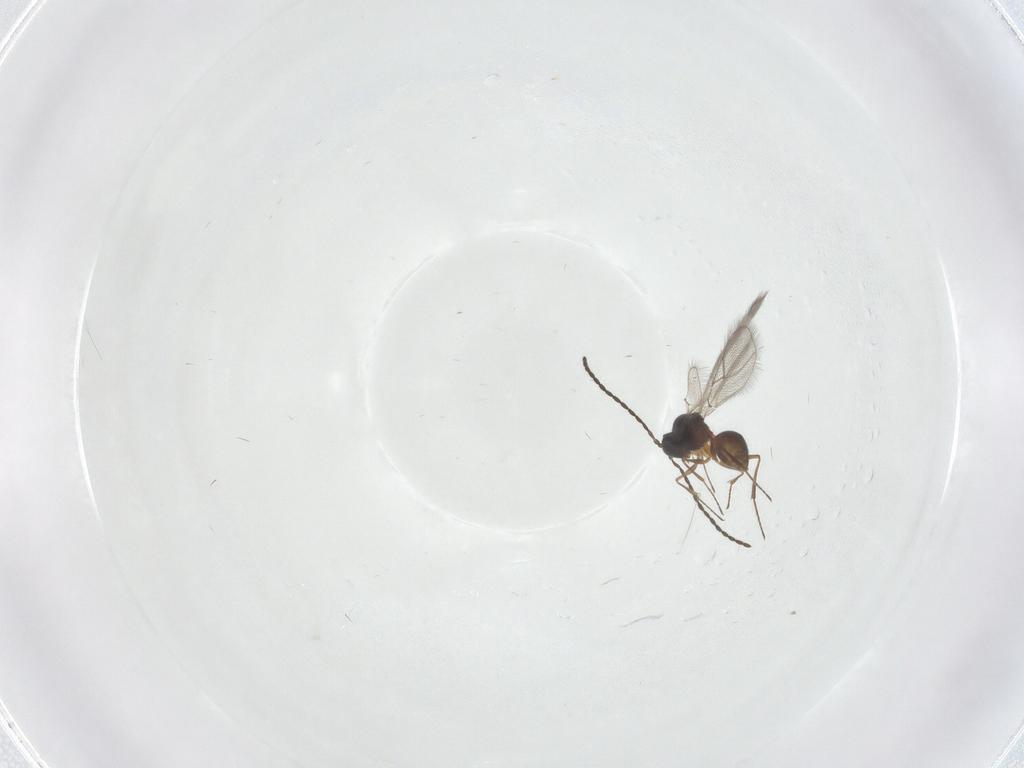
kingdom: Animalia
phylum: Arthropoda
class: Insecta
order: Hymenoptera
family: Figitidae
